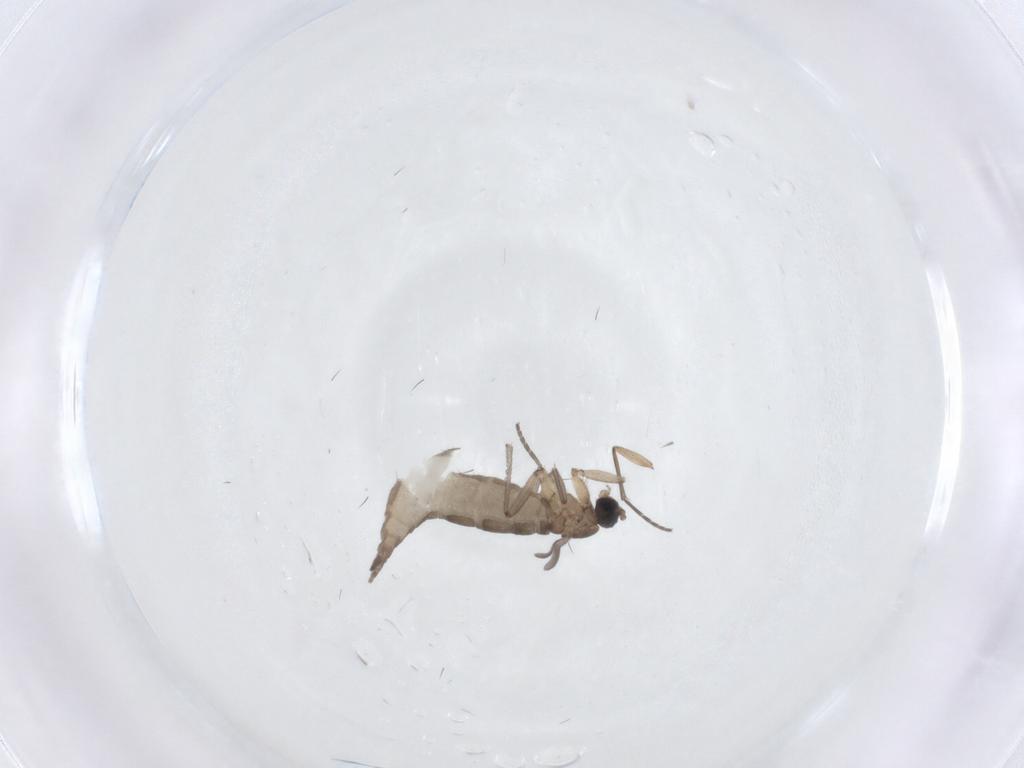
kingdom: Animalia
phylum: Arthropoda
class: Insecta
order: Diptera
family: Sciaridae
